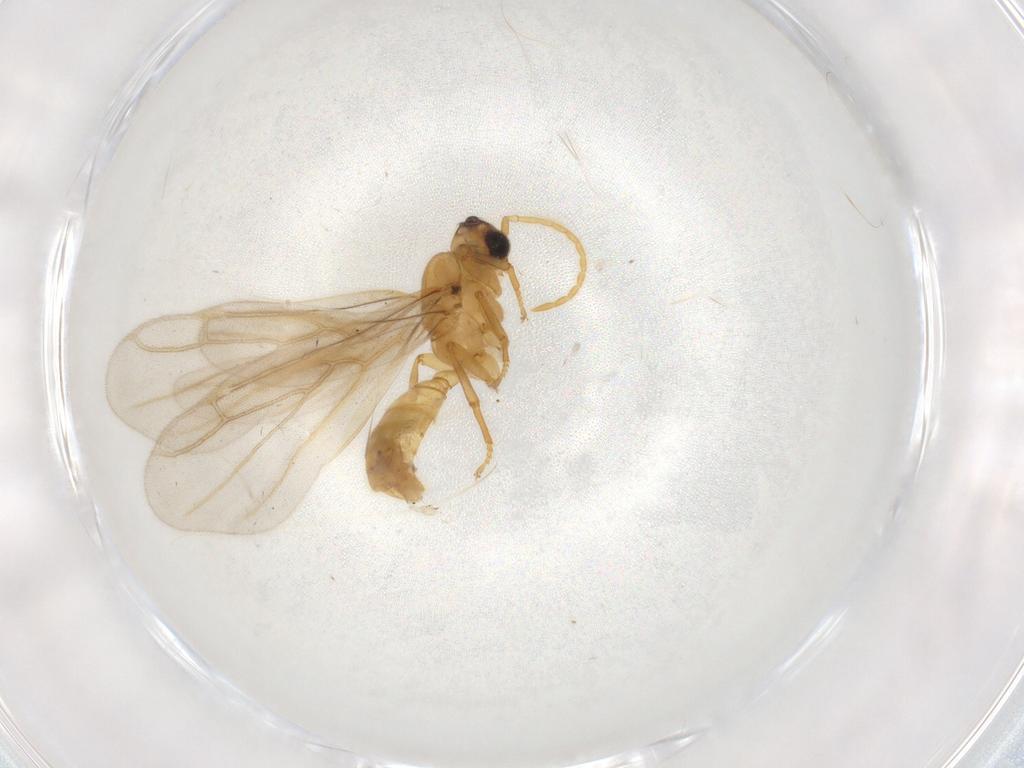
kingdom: Animalia
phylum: Arthropoda
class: Insecta
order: Hymenoptera
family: Formicidae
